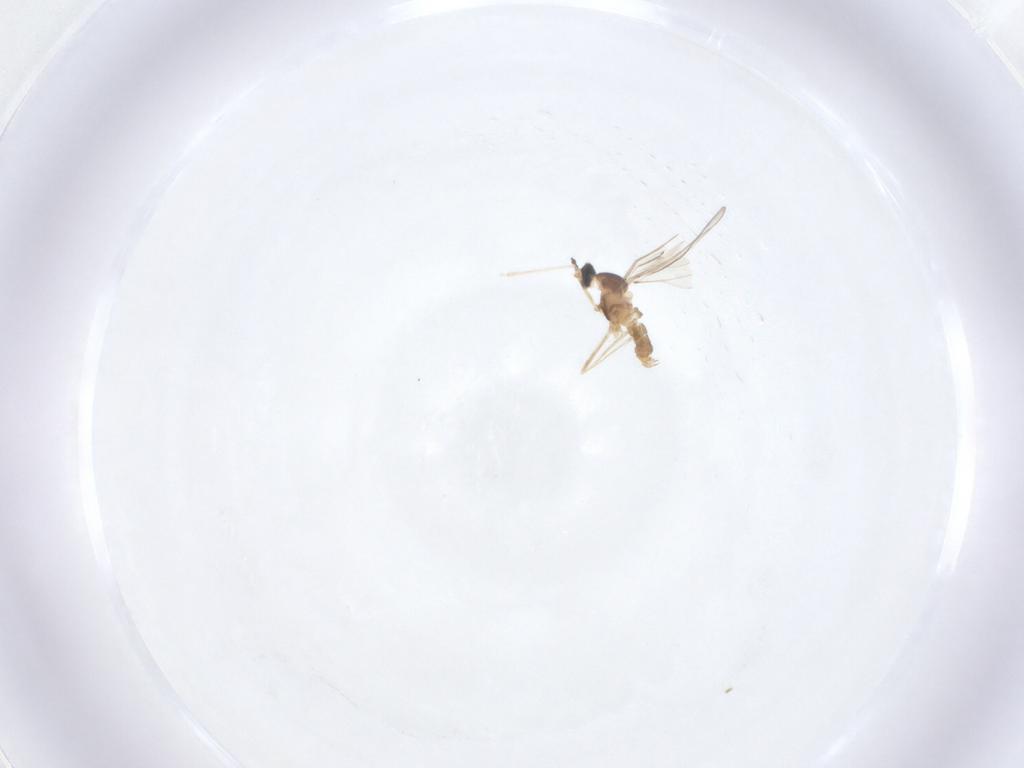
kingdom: Animalia
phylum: Arthropoda
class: Insecta
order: Diptera
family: Cecidomyiidae
